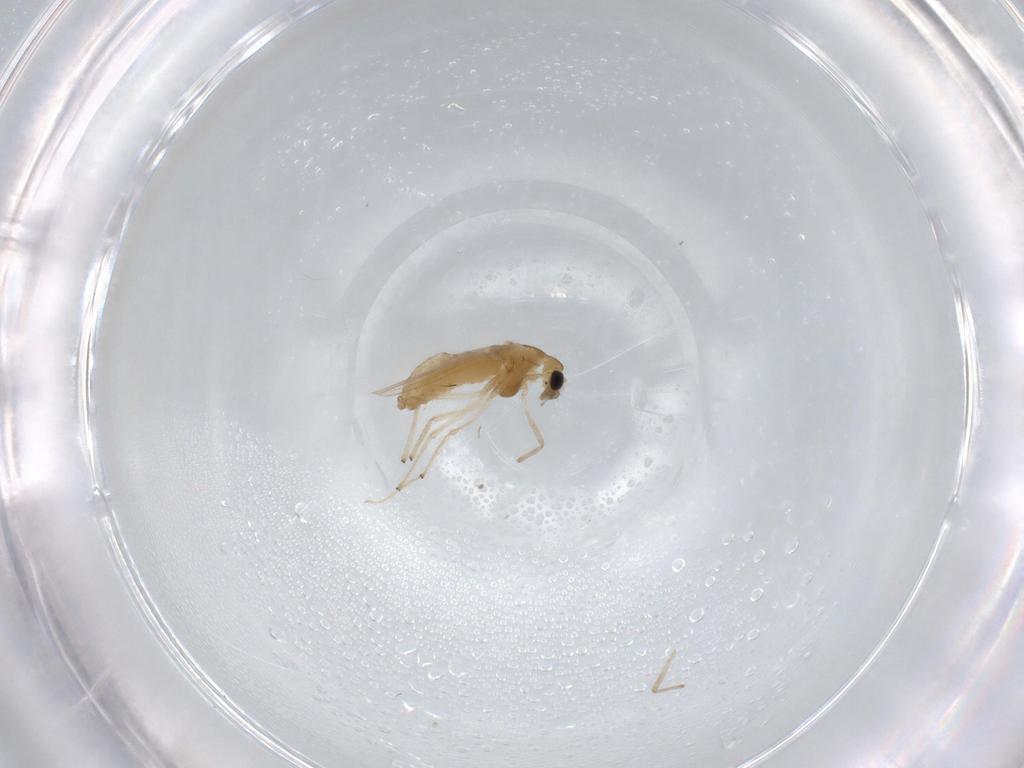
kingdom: Animalia
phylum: Arthropoda
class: Insecta
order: Diptera
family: Chironomidae
